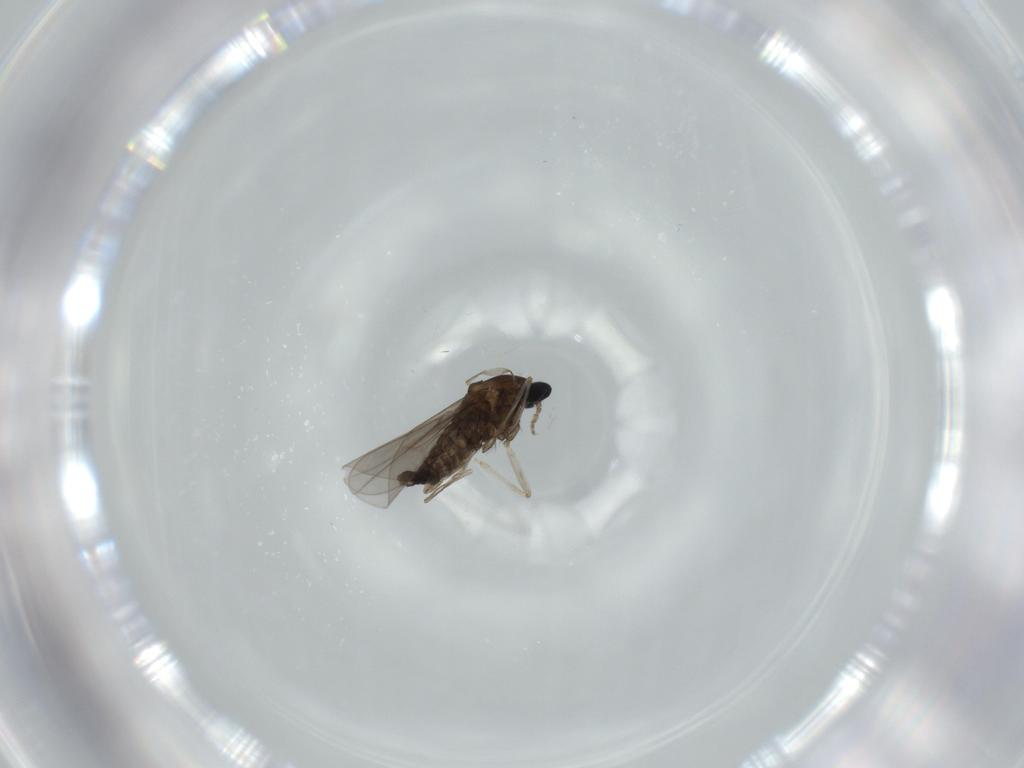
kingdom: Animalia
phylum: Arthropoda
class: Insecta
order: Diptera
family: Cecidomyiidae
